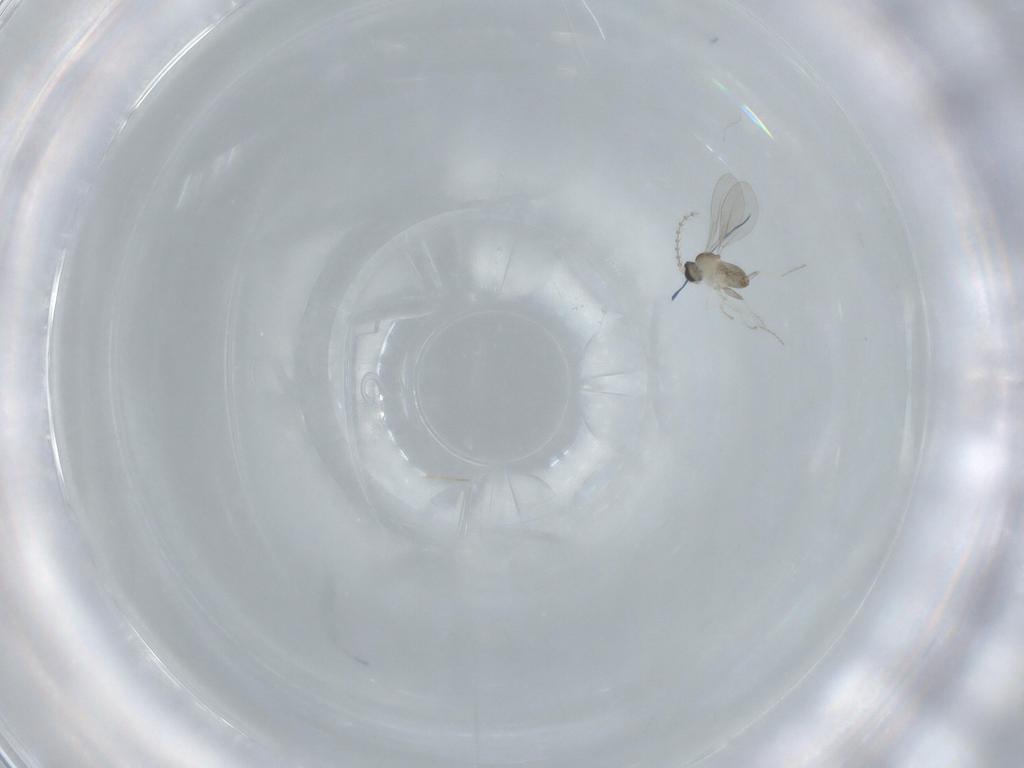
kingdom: Animalia
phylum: Arthropoda
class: Insecta
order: Diptera
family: Cecidomyiidae
